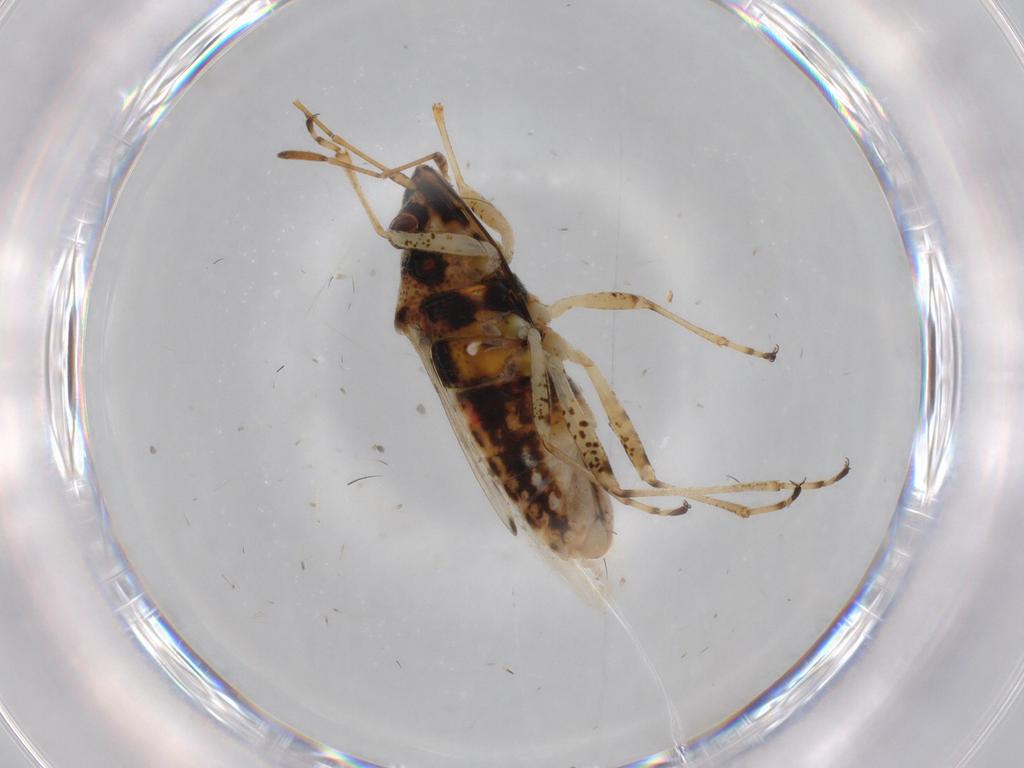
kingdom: Animalia
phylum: Arthropoda
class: Insecta
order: Hemiptera
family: Lygaeidae
